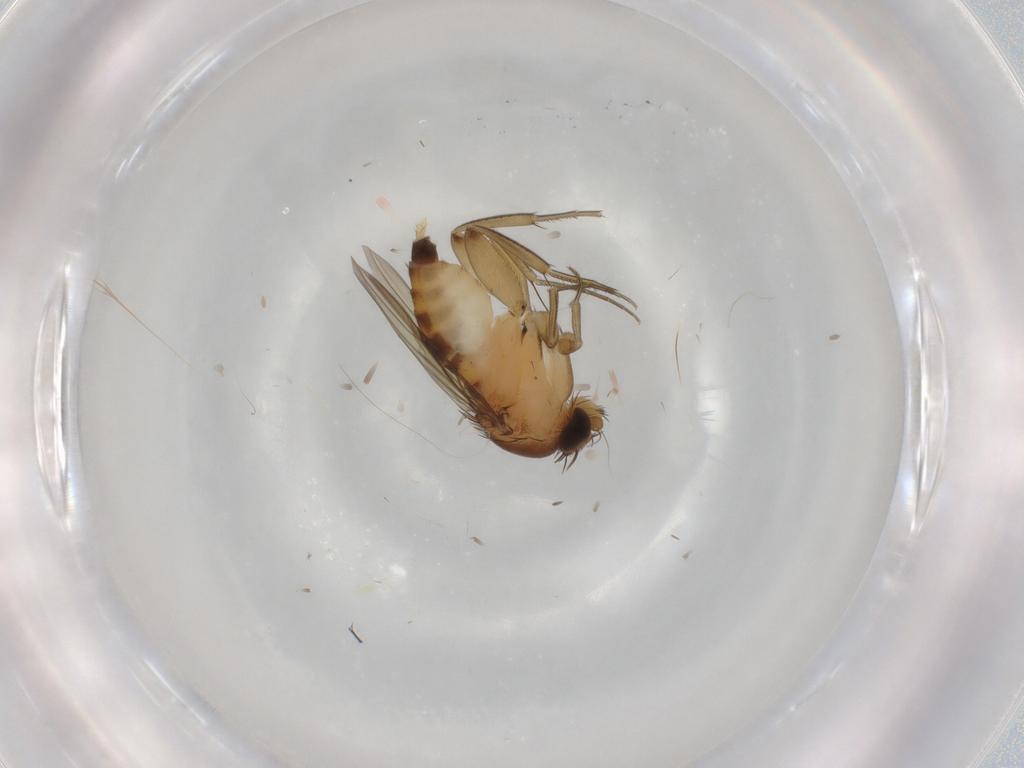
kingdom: Animalia
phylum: Arthropoda
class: Insecta
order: Diptera
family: Phoridae
